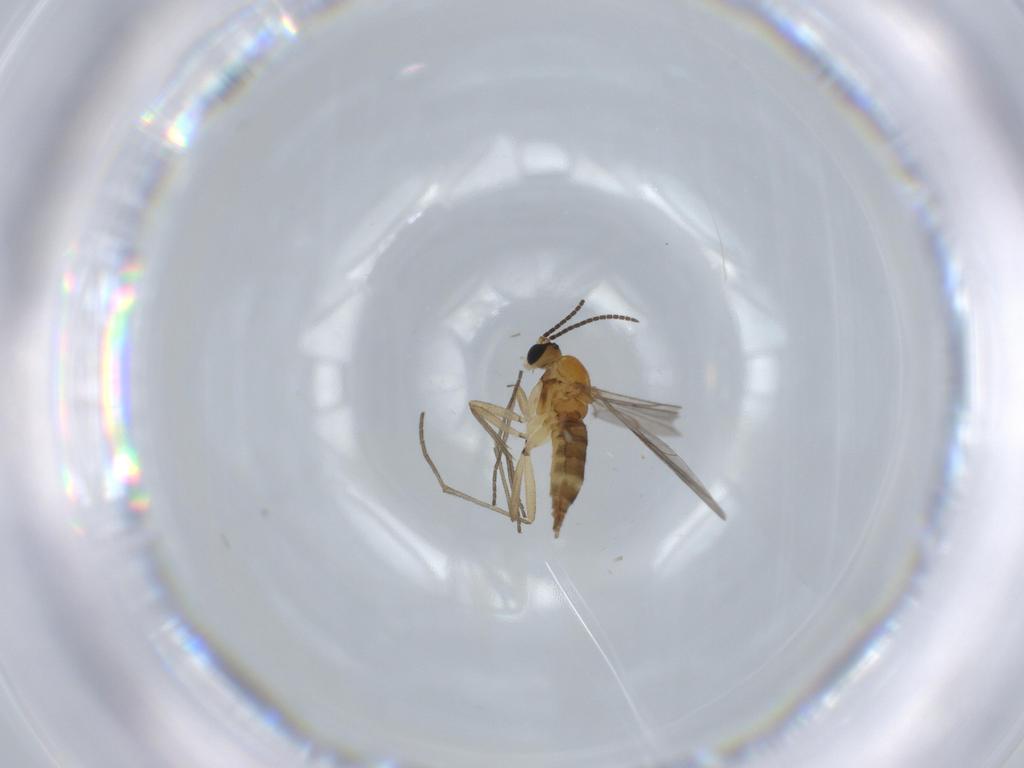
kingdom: Animalia
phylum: Arthropoda
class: Insecta
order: Diptera
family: Sciaridae
